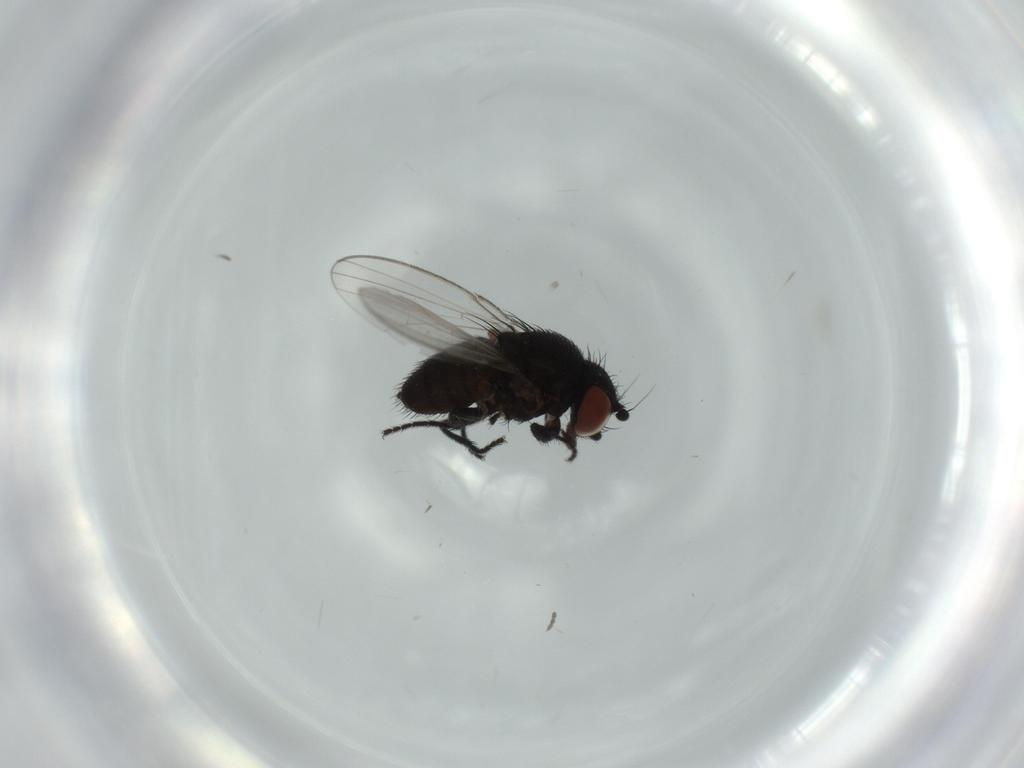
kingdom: Animalia
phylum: Arthropoda
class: Insecta
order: Diptera
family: Milichiidae
